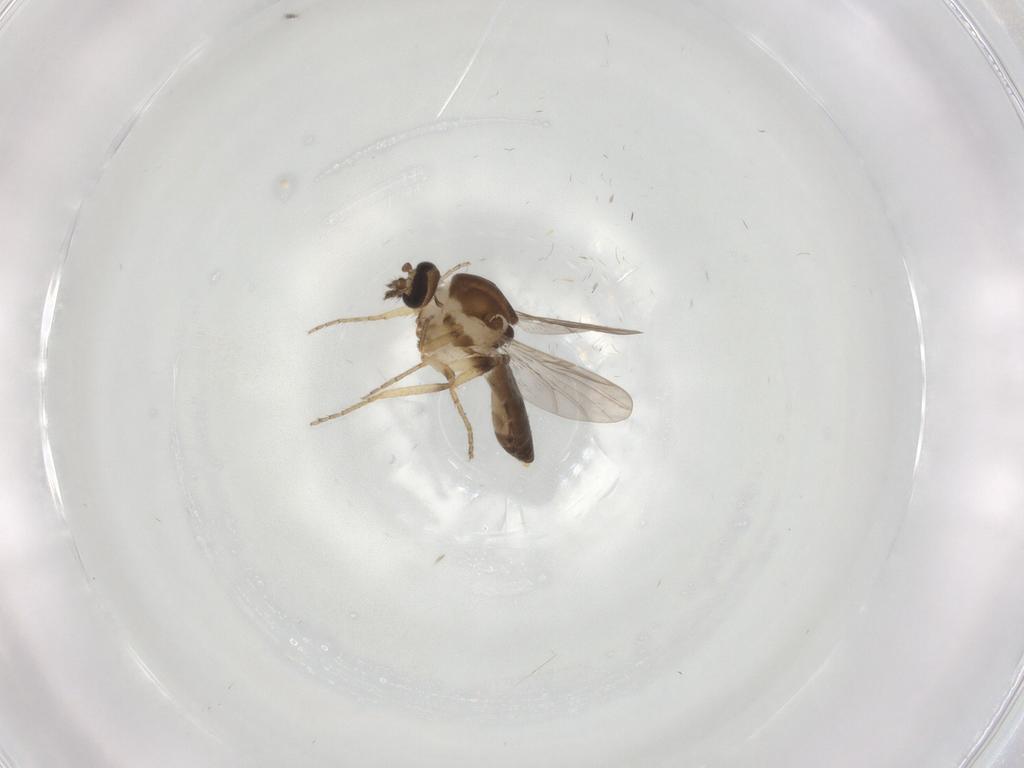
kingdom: Animalia
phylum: Arthropoda
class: Insecta
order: Diptera
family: Ceratopogonidae
